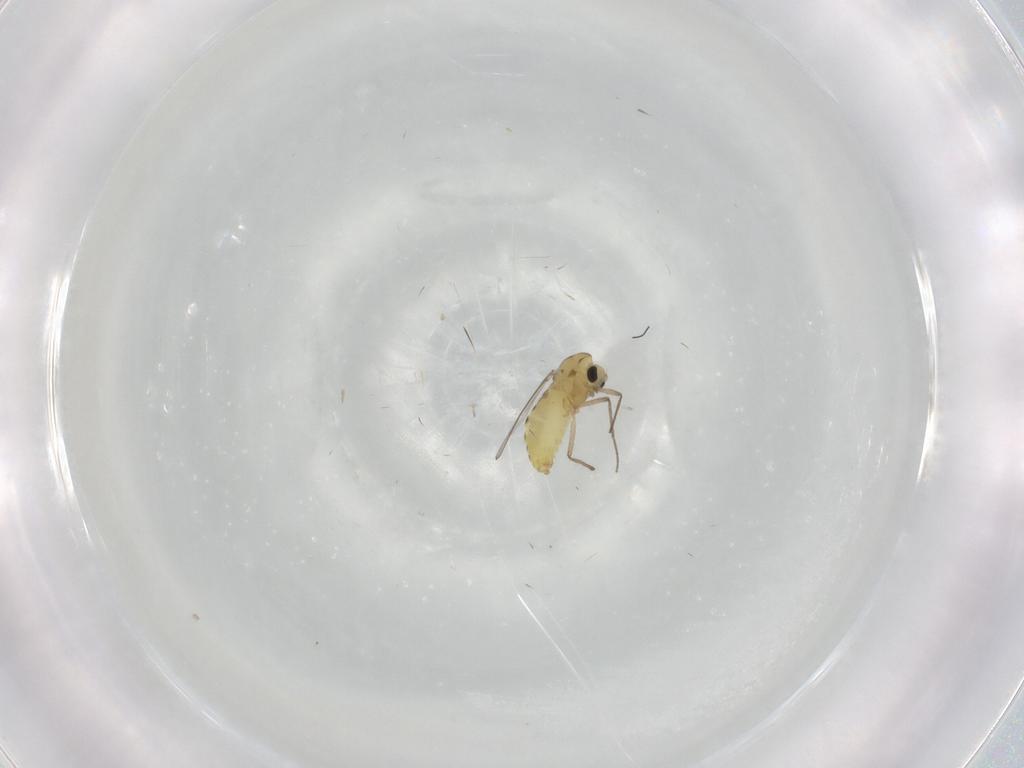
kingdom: Animalia
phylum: Arthropoda
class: Insecta
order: Diptera
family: Chironomidae
